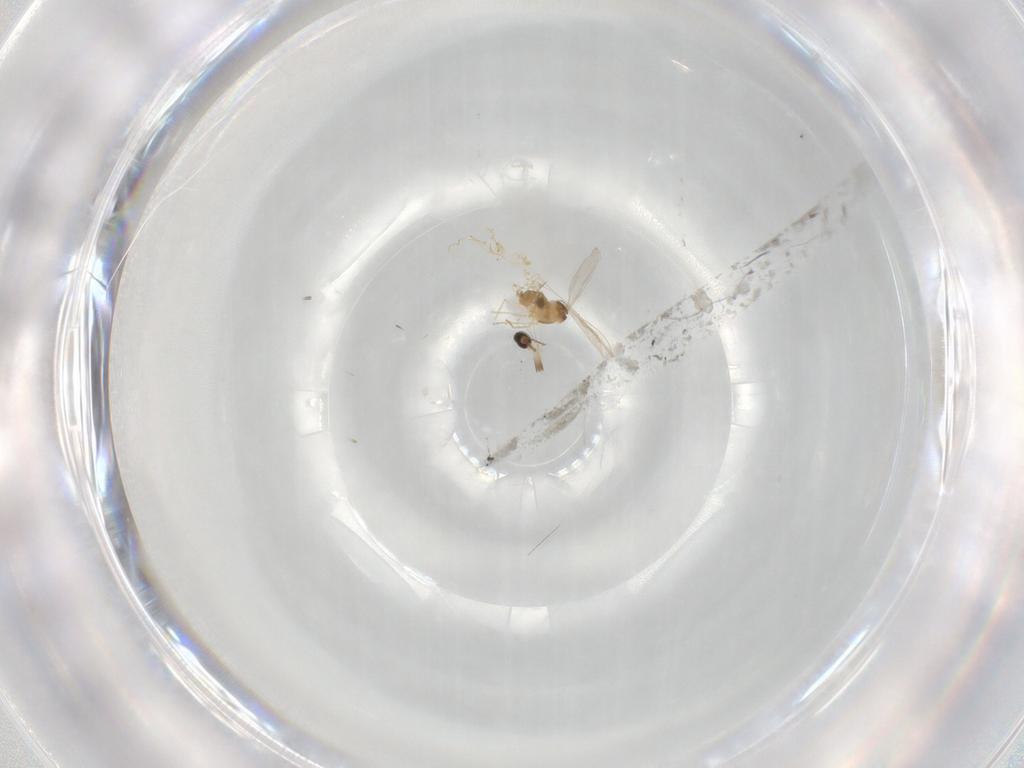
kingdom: Animalia
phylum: Arthropoda
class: Insecta
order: Diptera
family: Cecidomyiidae
